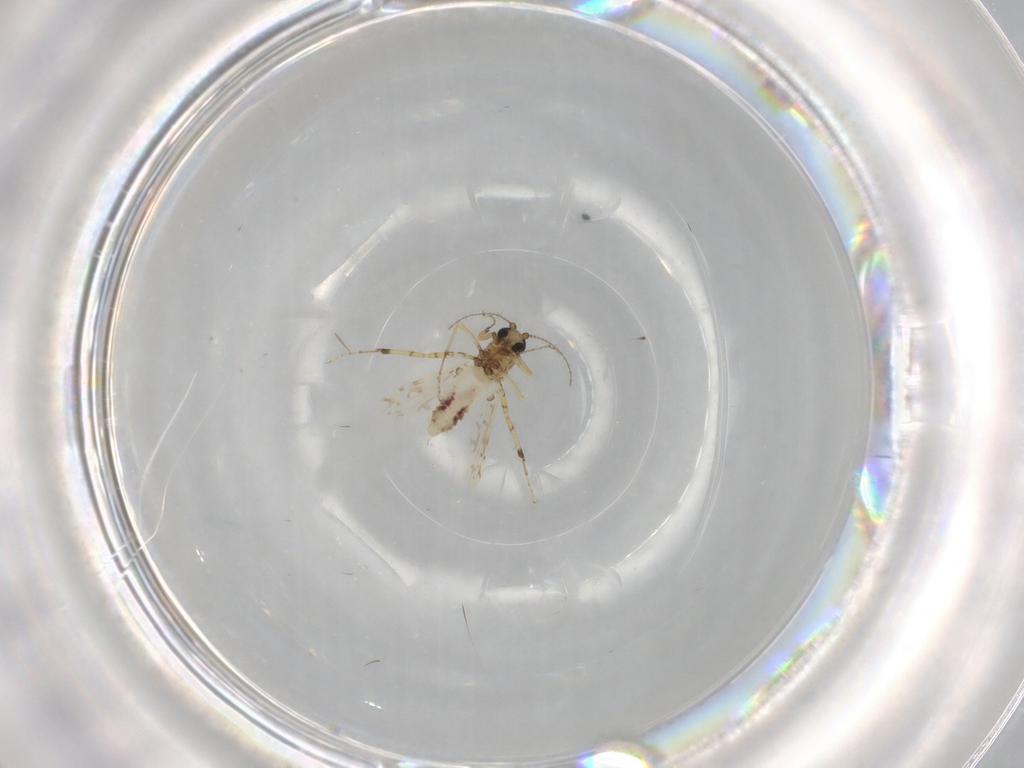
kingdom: Animalia
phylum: Arthropoda
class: Insecta
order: Diptera
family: Ceratopogonidae
